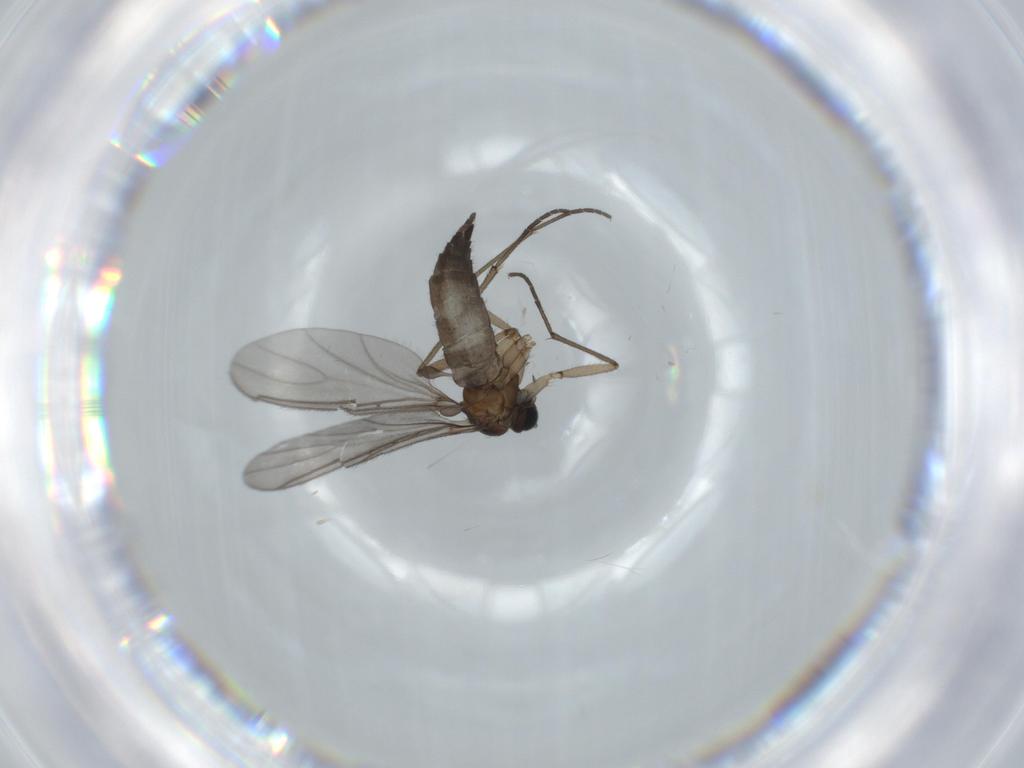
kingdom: Animalia
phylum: Arthropoda
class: Insecta
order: Diptera
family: Sciaridae
